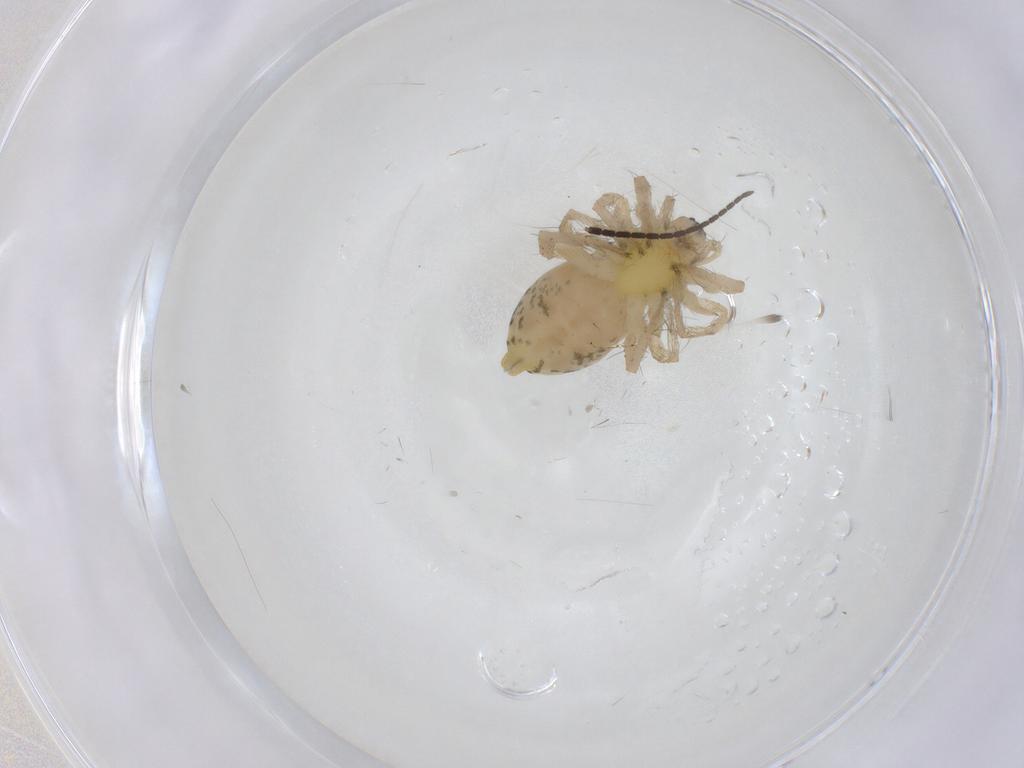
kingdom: Animalia
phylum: Arthropoda
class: Arachnida
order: Araneae
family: Anyphaenidae
